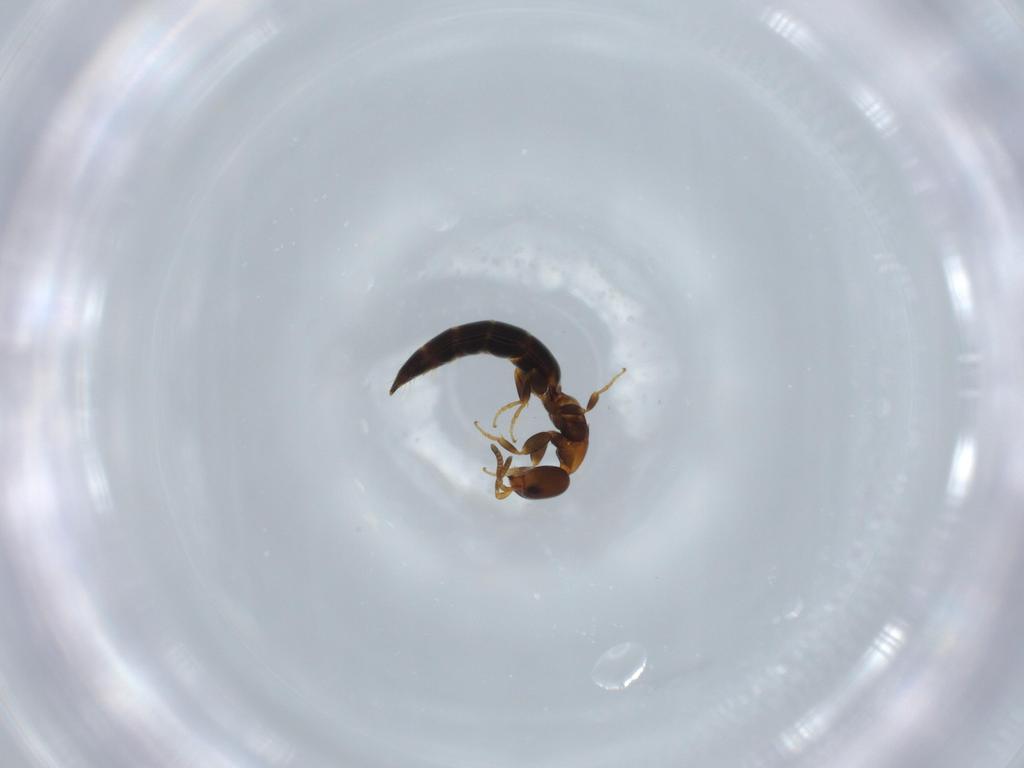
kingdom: Animalia
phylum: Arthropoda
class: Insecta
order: Hymenoptera
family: Bethylidae
